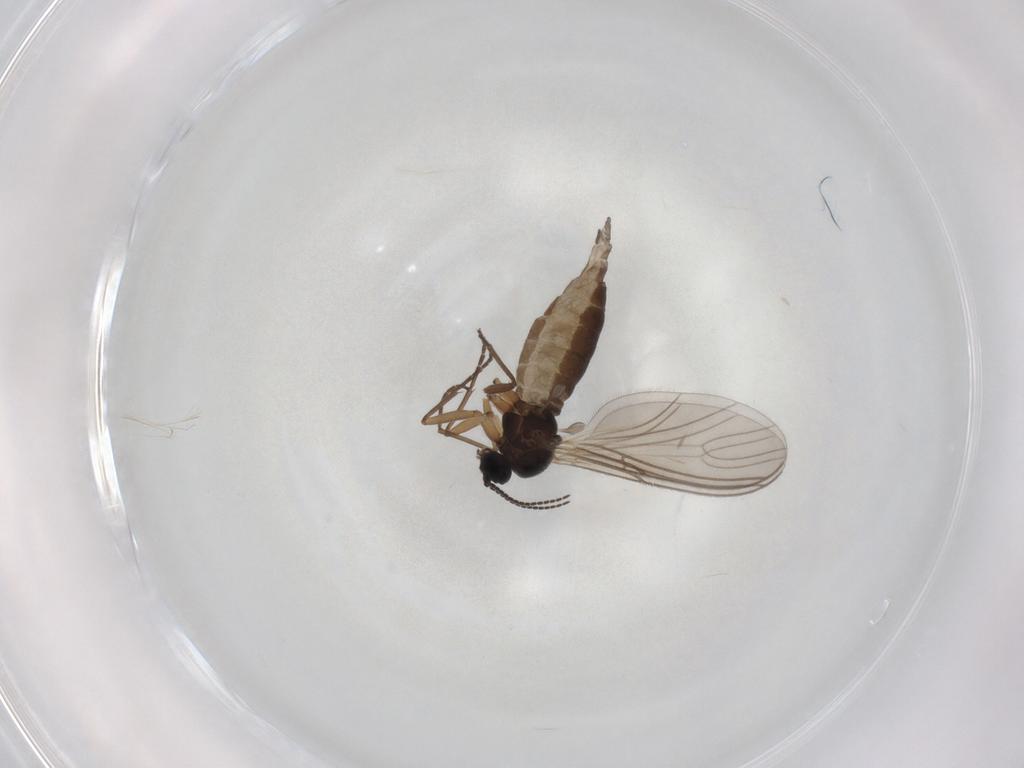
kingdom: Animalia
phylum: Arthropoda
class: Insecta
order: Diptera
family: Sciaridae
